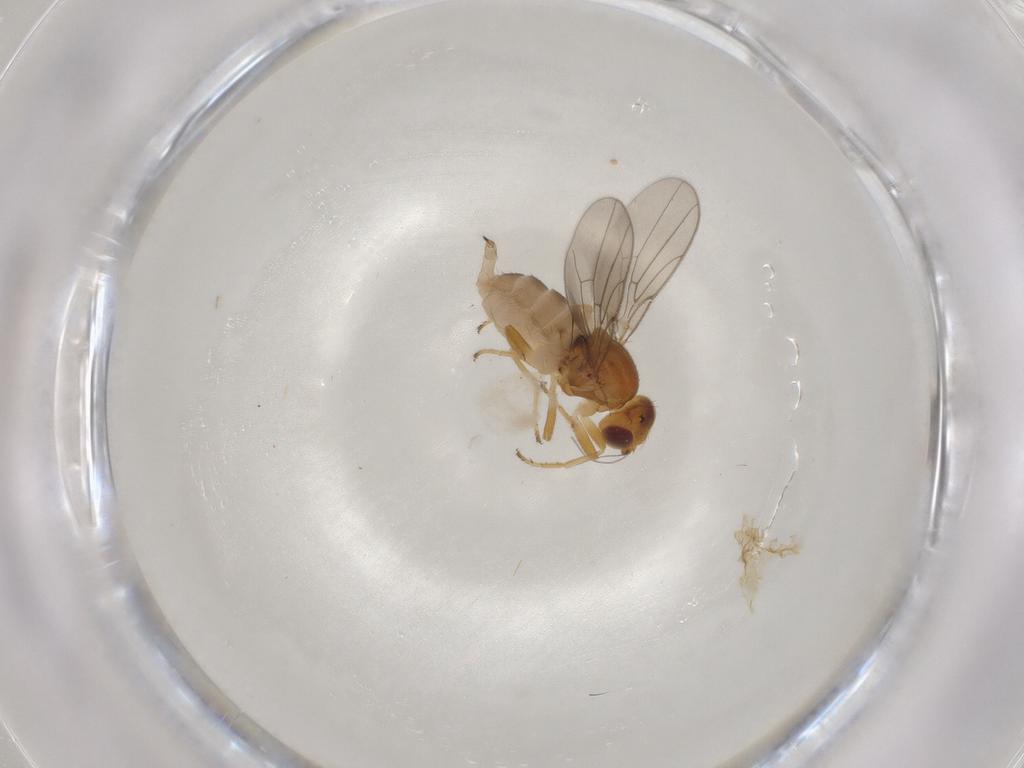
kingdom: Animalia
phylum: Arthropoda
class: Insecta
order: Diptera
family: Chloropidae
